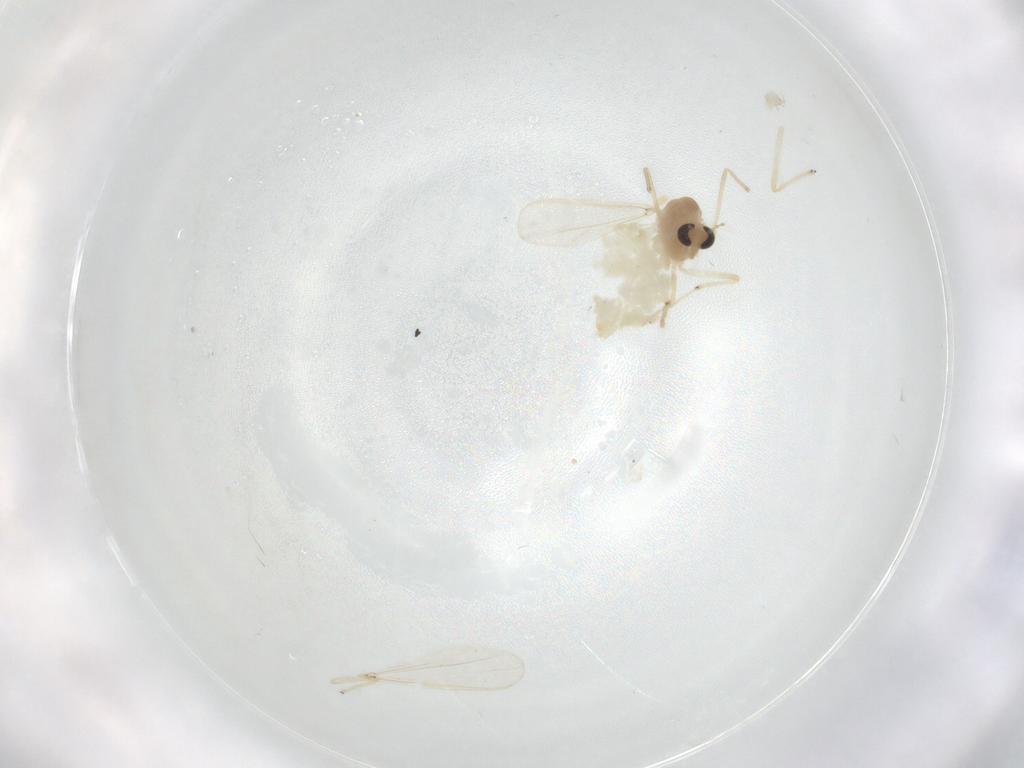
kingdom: Animalia
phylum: Arthropoda
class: Insecta
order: Diptera
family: Chironomidae
